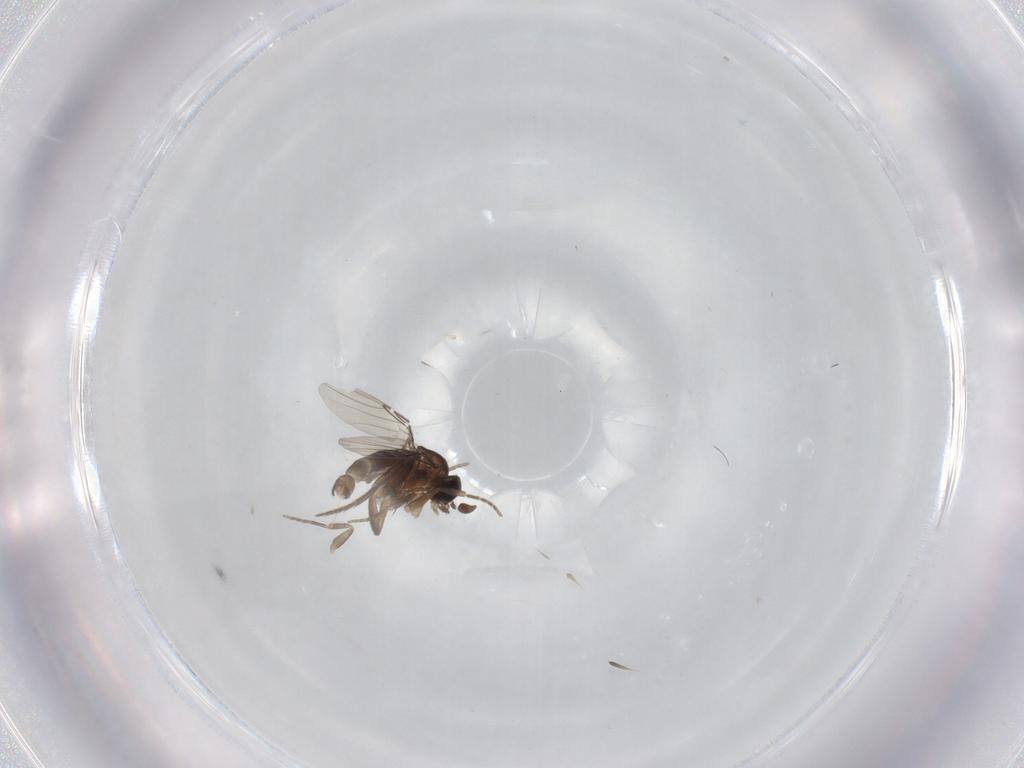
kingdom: Animalia
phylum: Arthropoda
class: Insecta
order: Diptera
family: Phoridae
